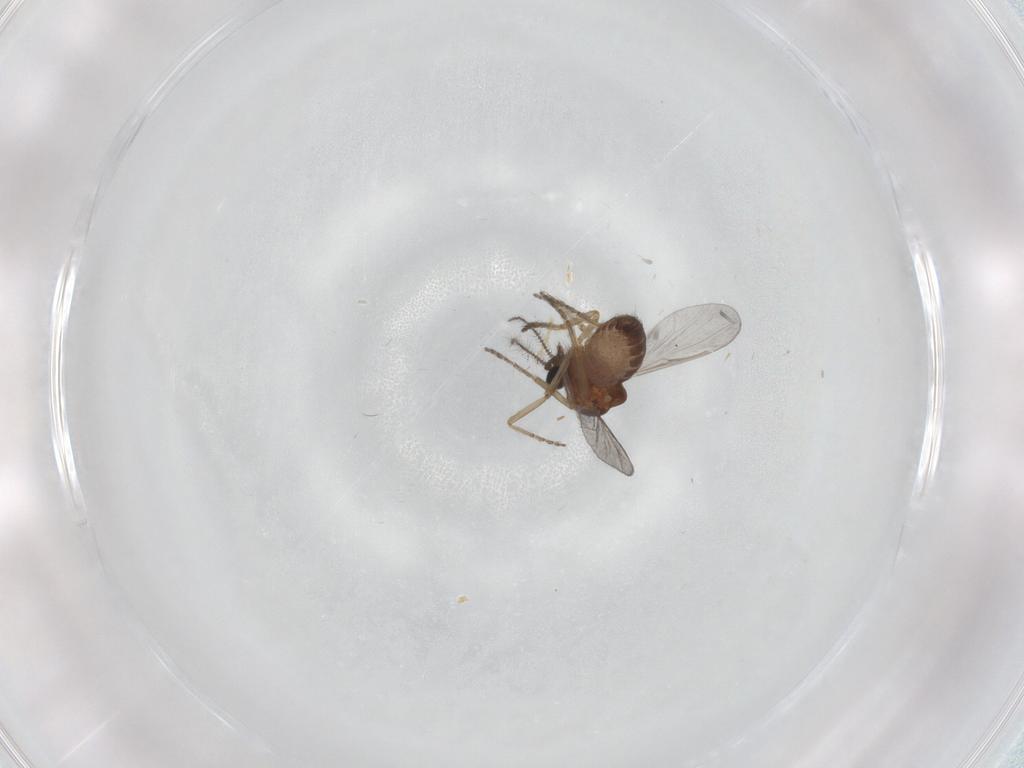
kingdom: Animalia
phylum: Arthropoda
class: Insecta
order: Diptera
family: Ceratopogonidae
